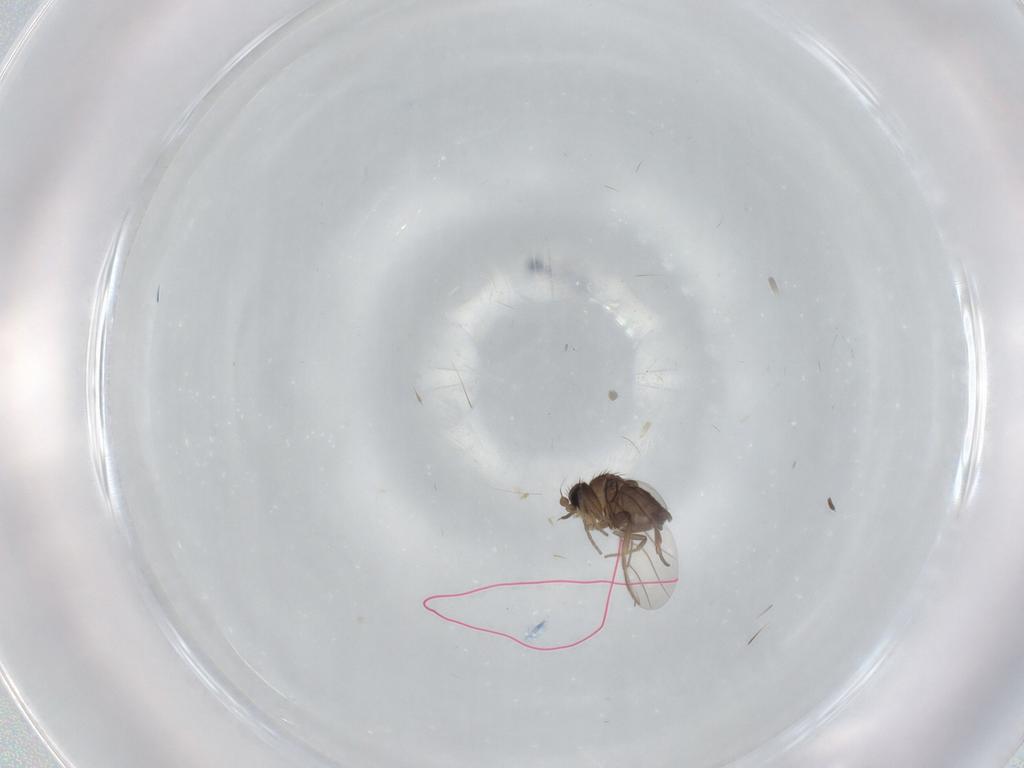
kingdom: Animalia
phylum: Arthropoda
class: Insecta
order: Diptera
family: Phoridae
